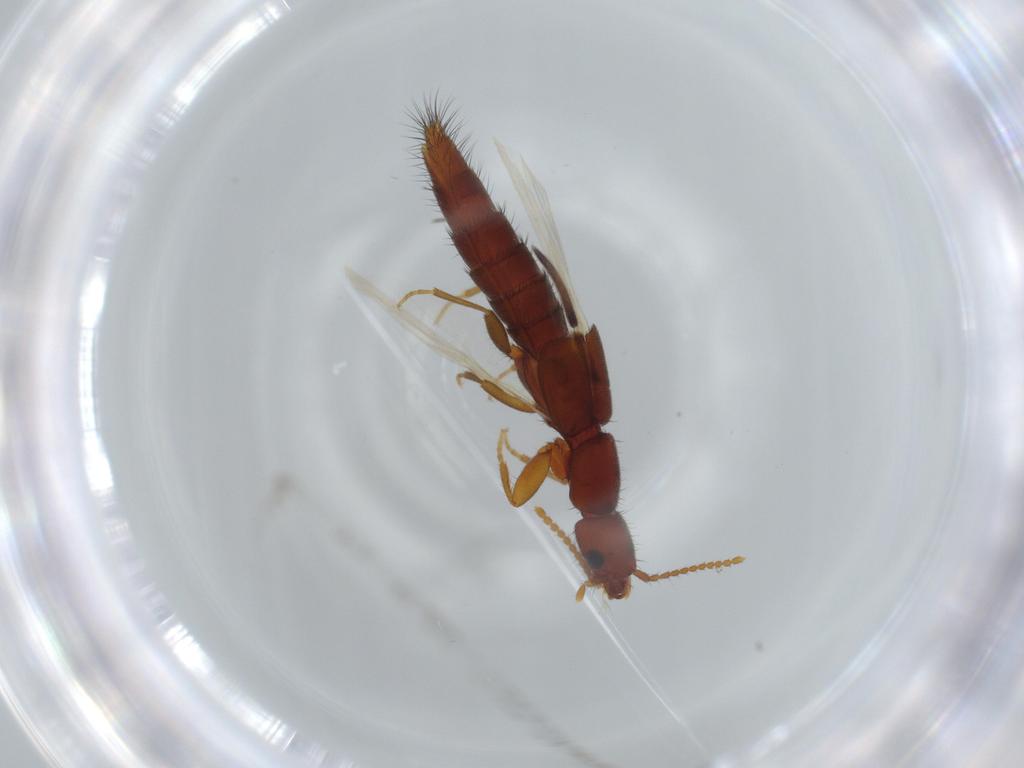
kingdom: Animalia
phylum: Arthropoda
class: Insecta
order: Coleoptera
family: Staphylinidae
